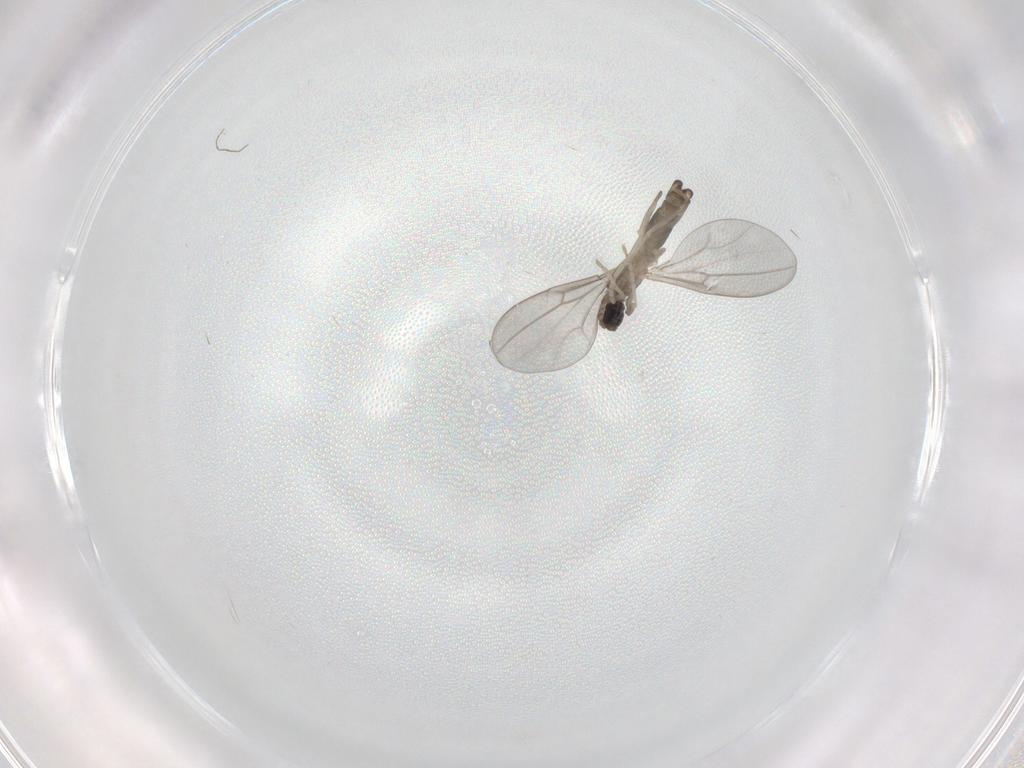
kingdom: Animalia
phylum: Arthropoda
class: Insecta
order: Diptera
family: Cecidomyiidae
